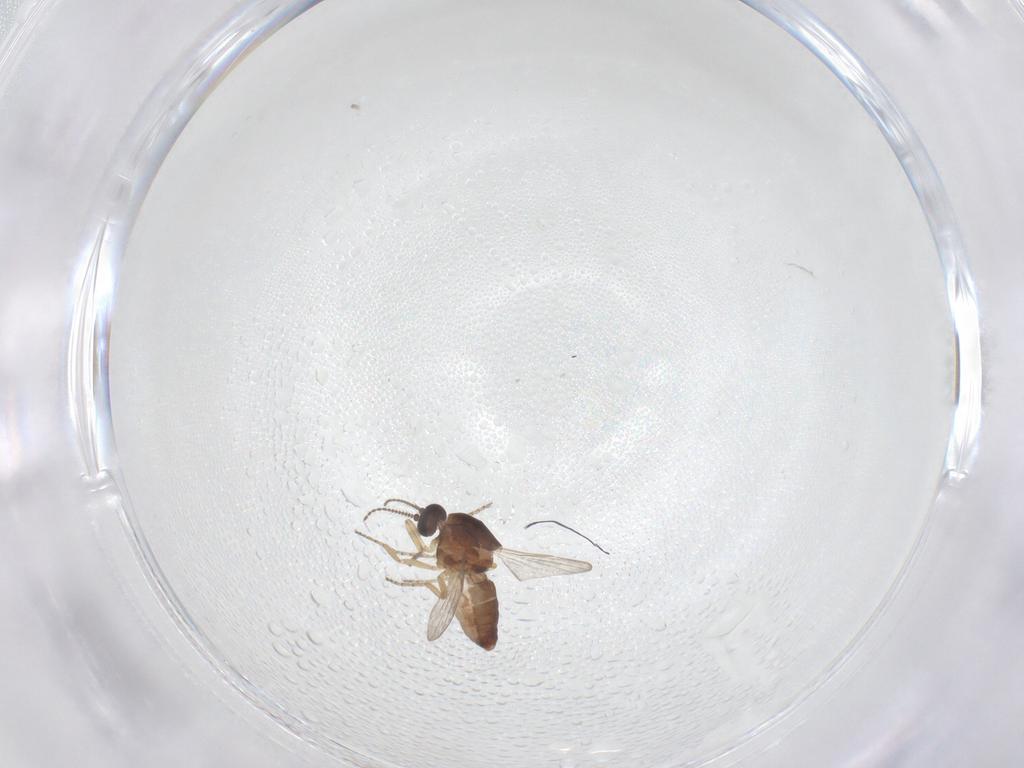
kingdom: Animalia
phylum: Arthropoda
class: Insecta
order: Diptera
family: Ceratopogonidae
